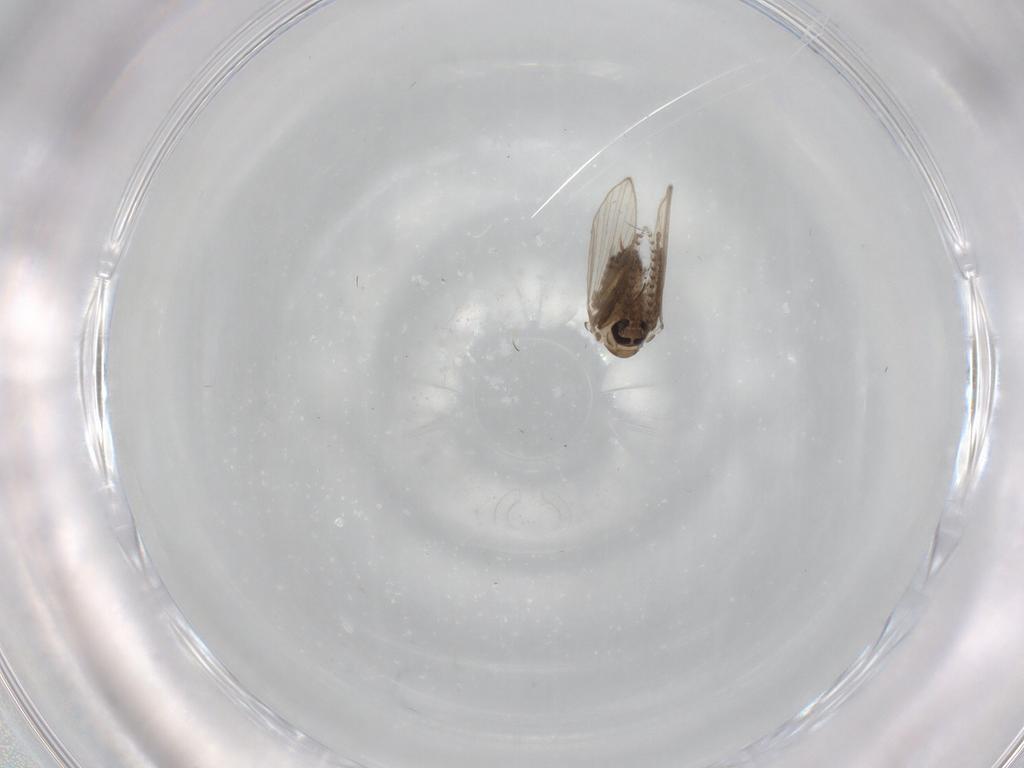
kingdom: Animalia
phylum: Arthropoda
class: Insecta
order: Diptera
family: Psychodidae
